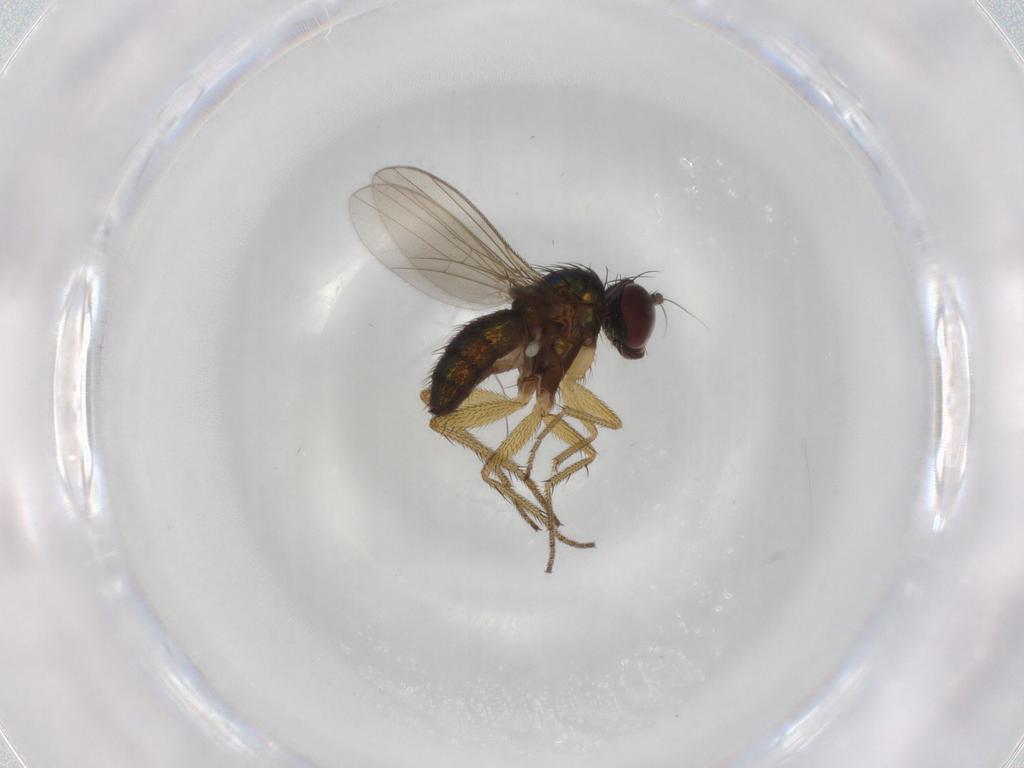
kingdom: Animalia
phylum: Arthropoda
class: Insecta
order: Diptera
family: Dolichopodidae
